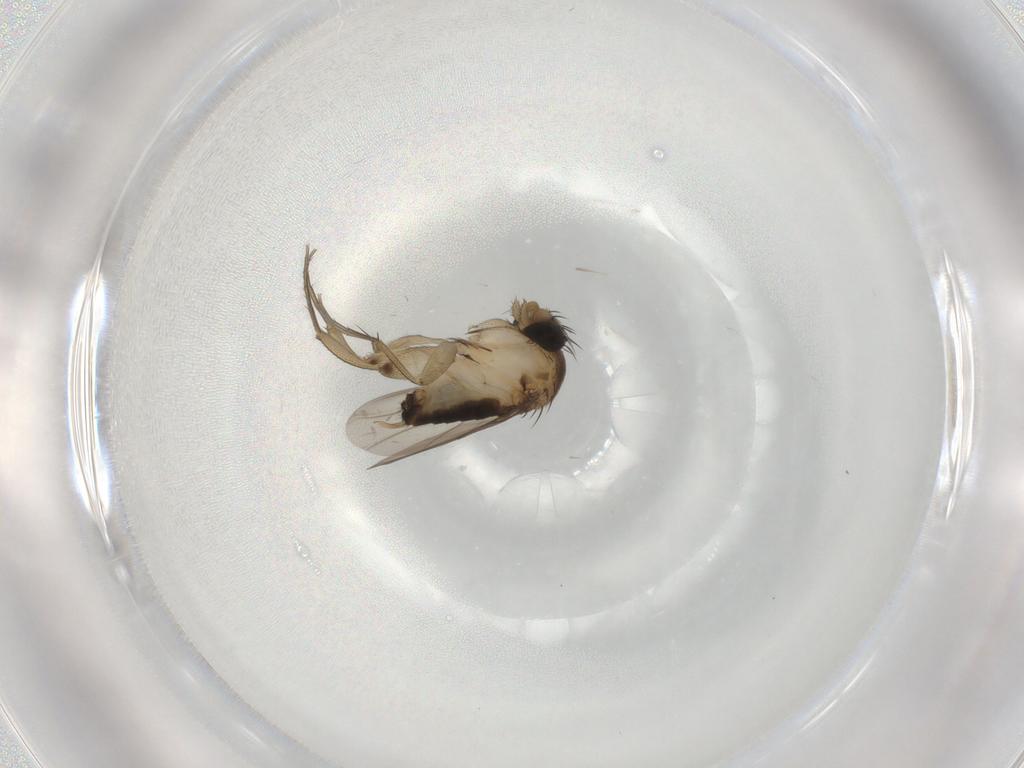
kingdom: Animalia
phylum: Arthropoda
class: Insecta
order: Diptera
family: Phoridae
